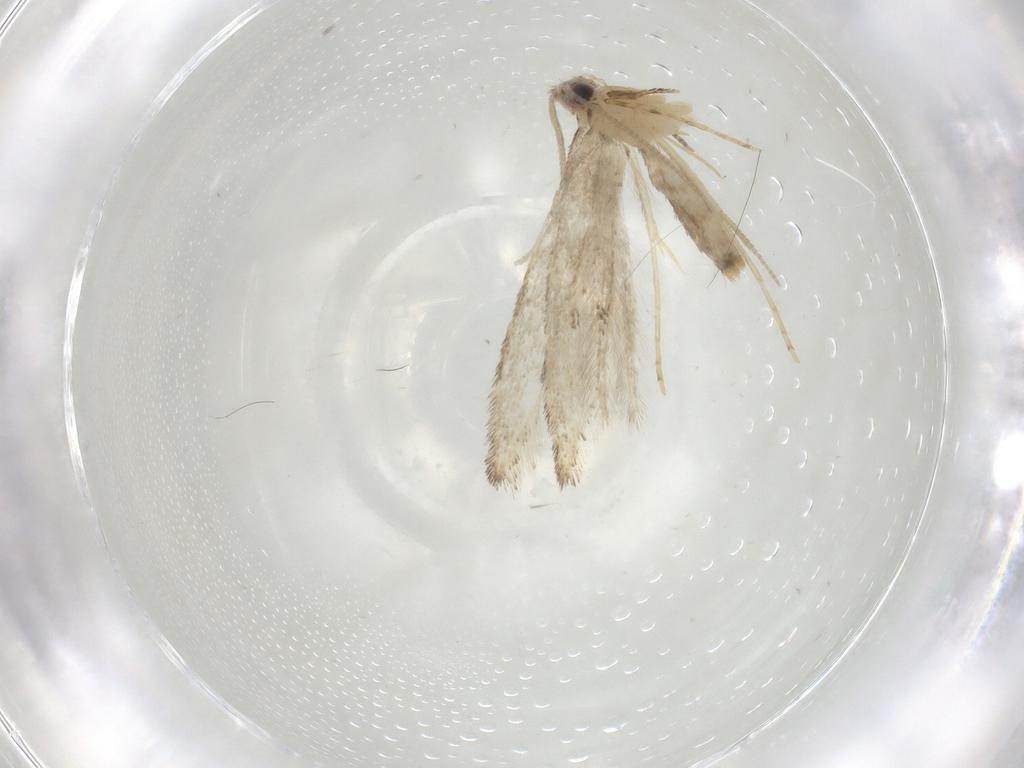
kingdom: Animalia
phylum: Arthropoda
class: Insecta
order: Lepidoptera
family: Tineidae
